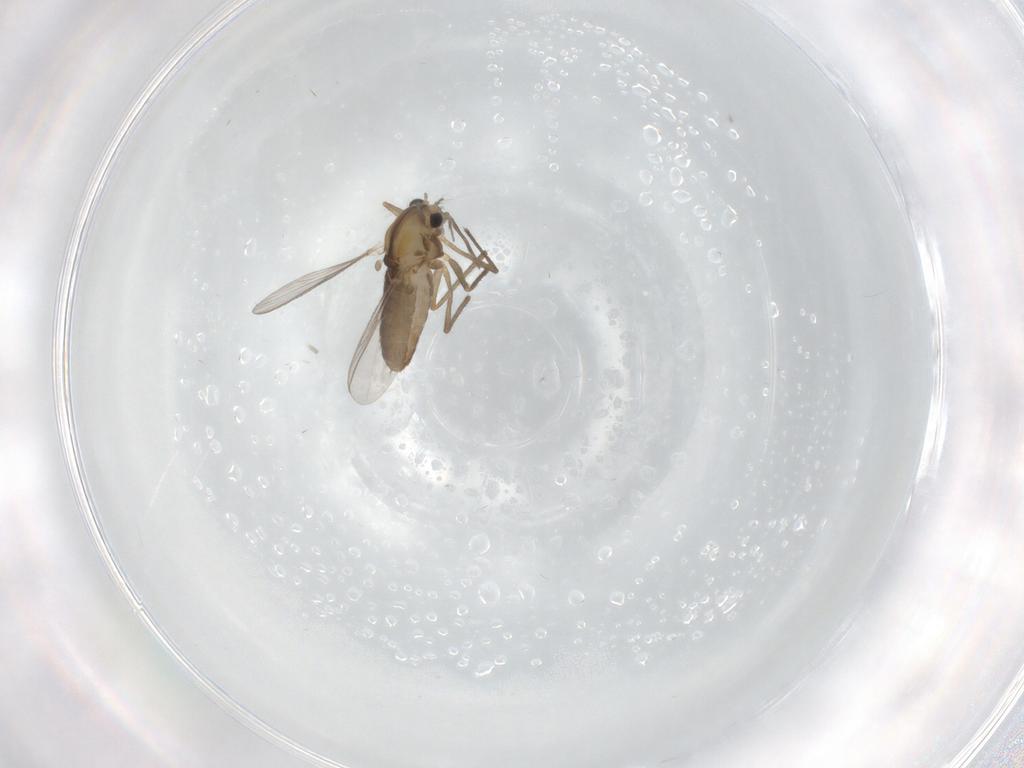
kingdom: Animalia
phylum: Arthropoda
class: Insecta
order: Diptera
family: Chironomidae
